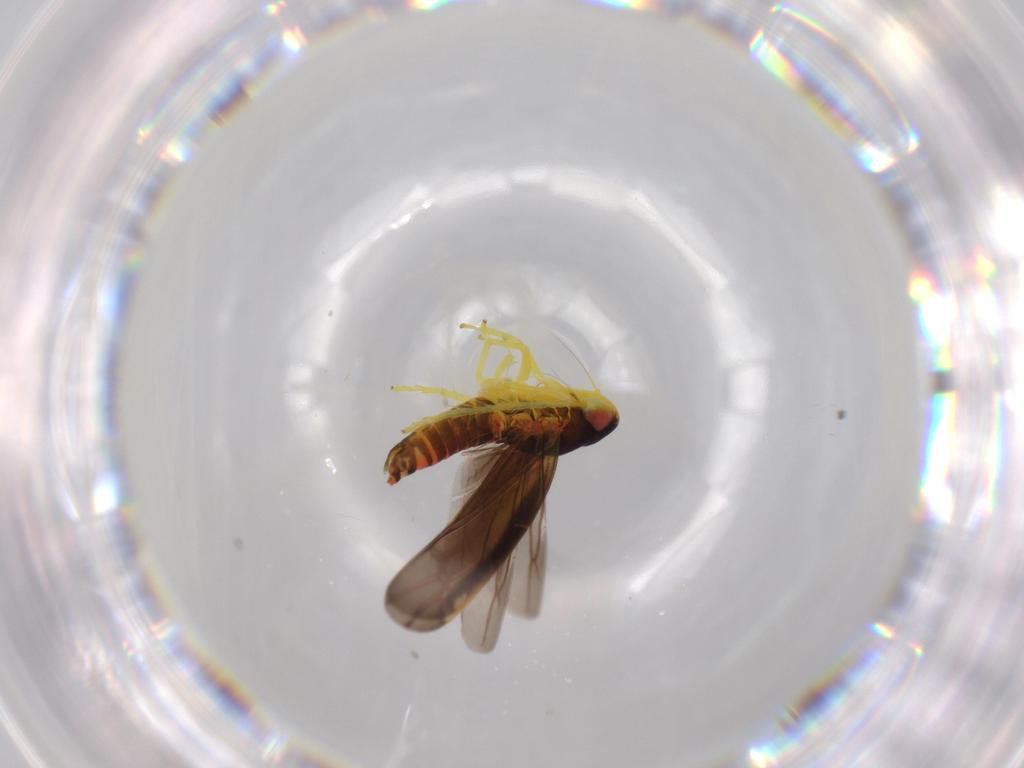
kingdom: Animalia
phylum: Arthropoda
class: Insecta
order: Hemiptera
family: Cicadellidae
